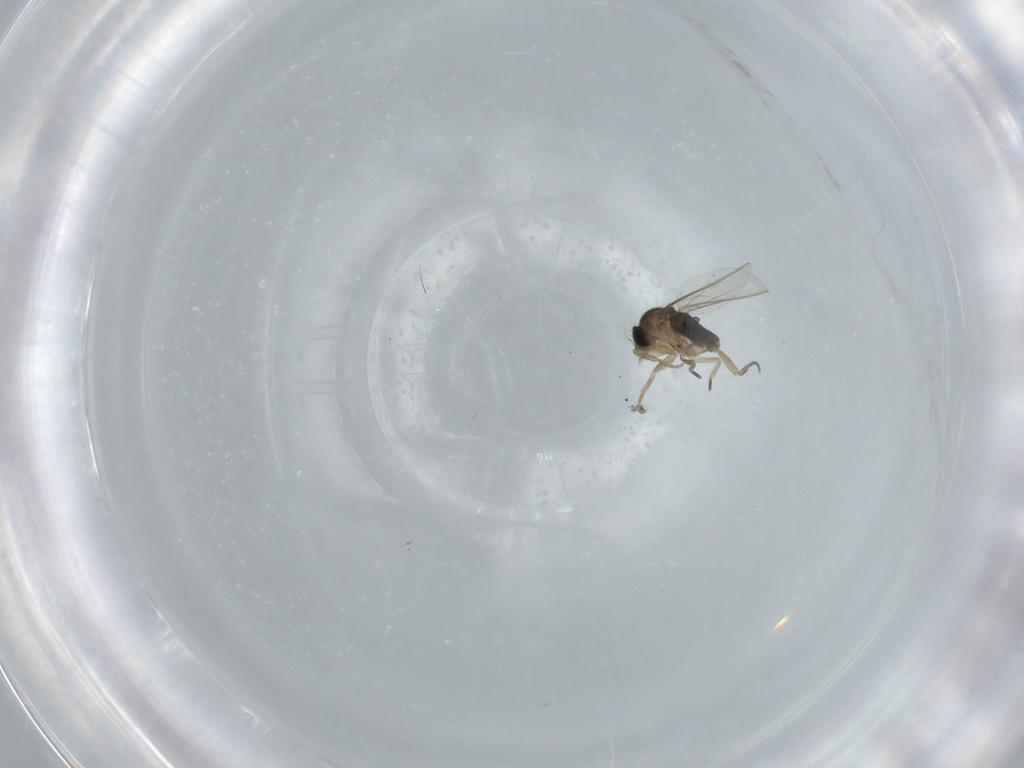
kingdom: Animalia
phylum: Arthropoda
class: Insecta
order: Diptera
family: Phoridae
